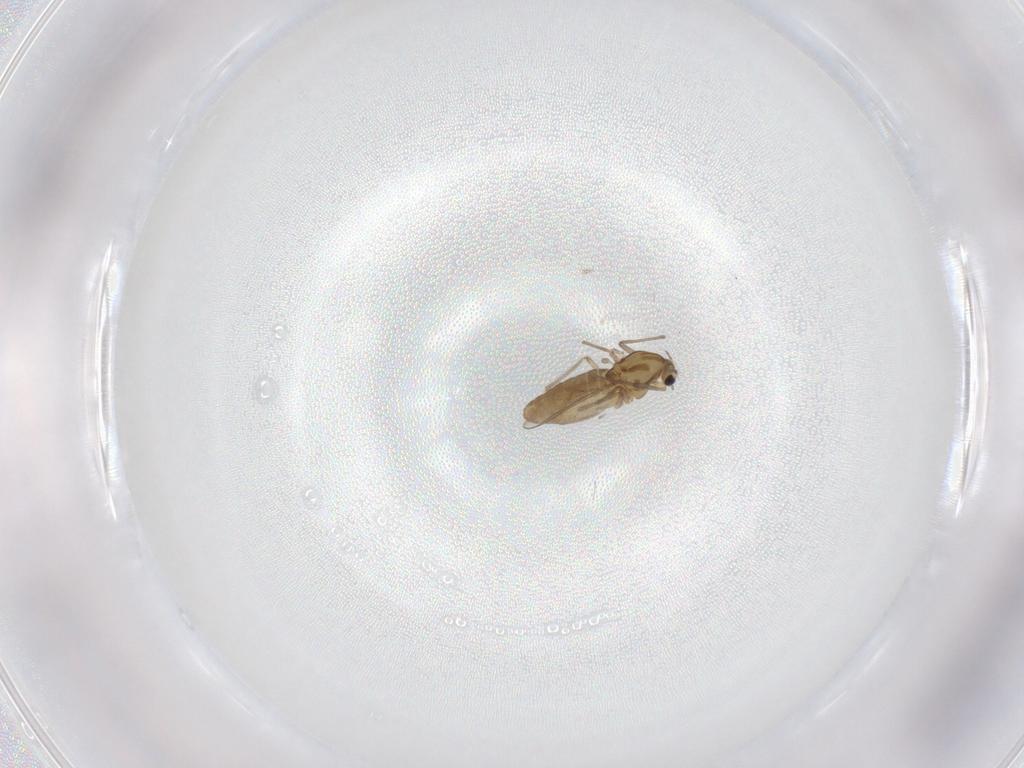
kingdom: Animalia
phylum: Arthropoda
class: Insecta
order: Diptera
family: Chironomidae
